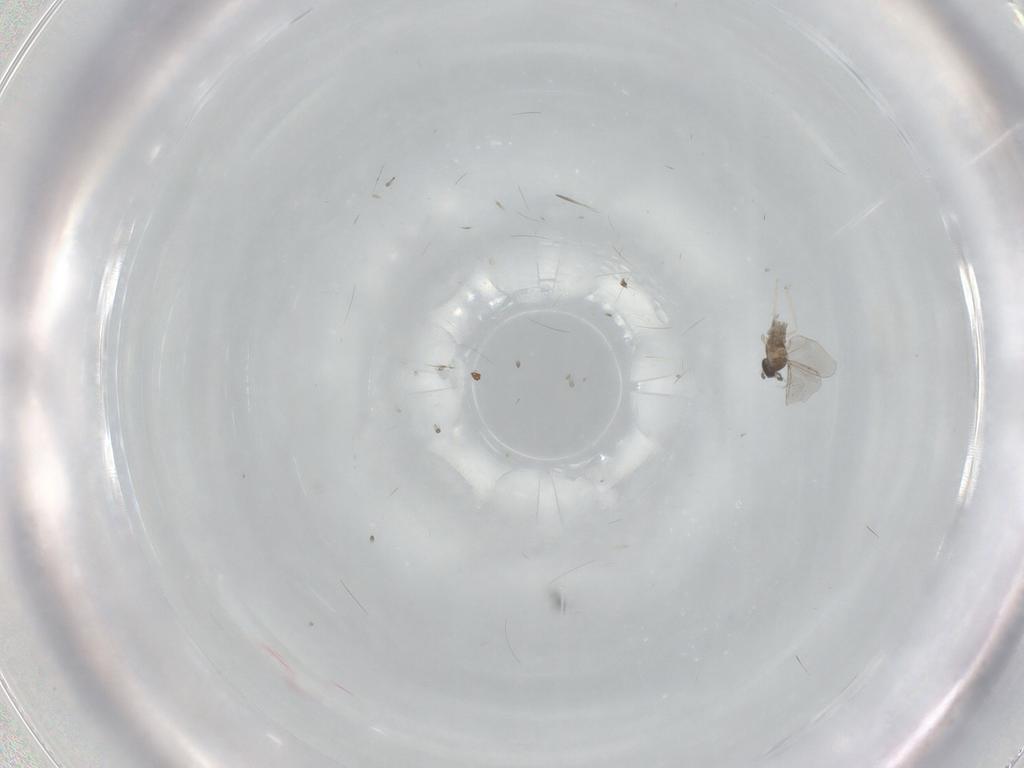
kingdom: Animalia
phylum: Arthropoda
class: Insecta
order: Diptera
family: Cecidomyiidae
